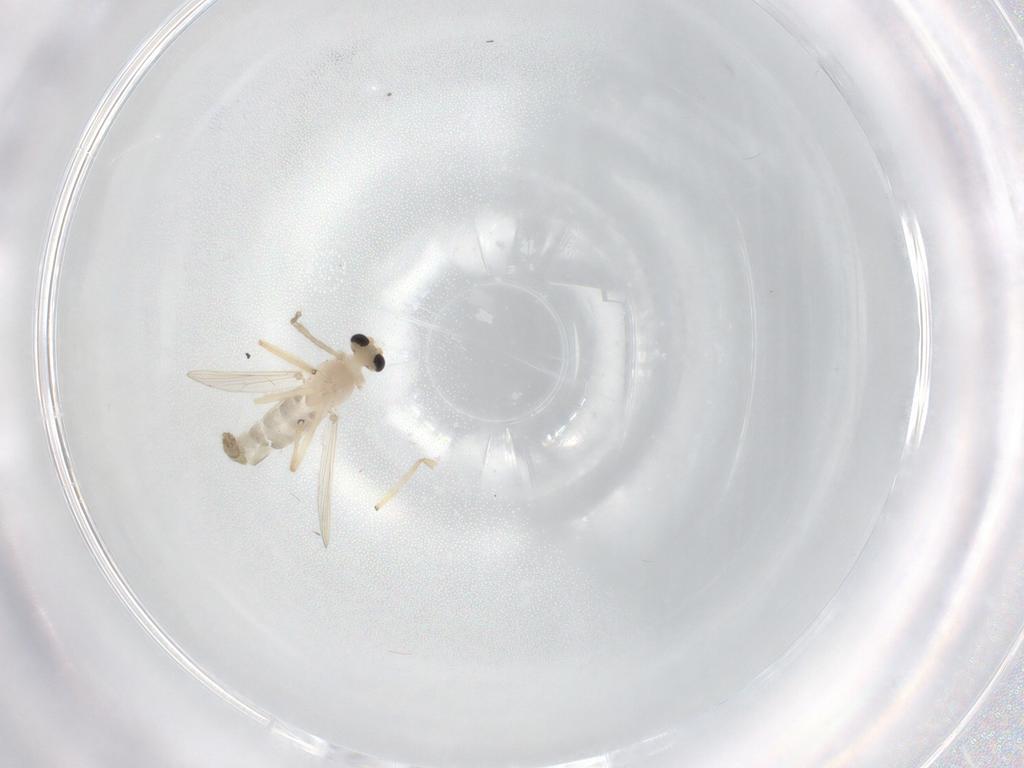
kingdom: Animalia
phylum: Arthropoda
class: Insecta
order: Diptera
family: Chironomidae
